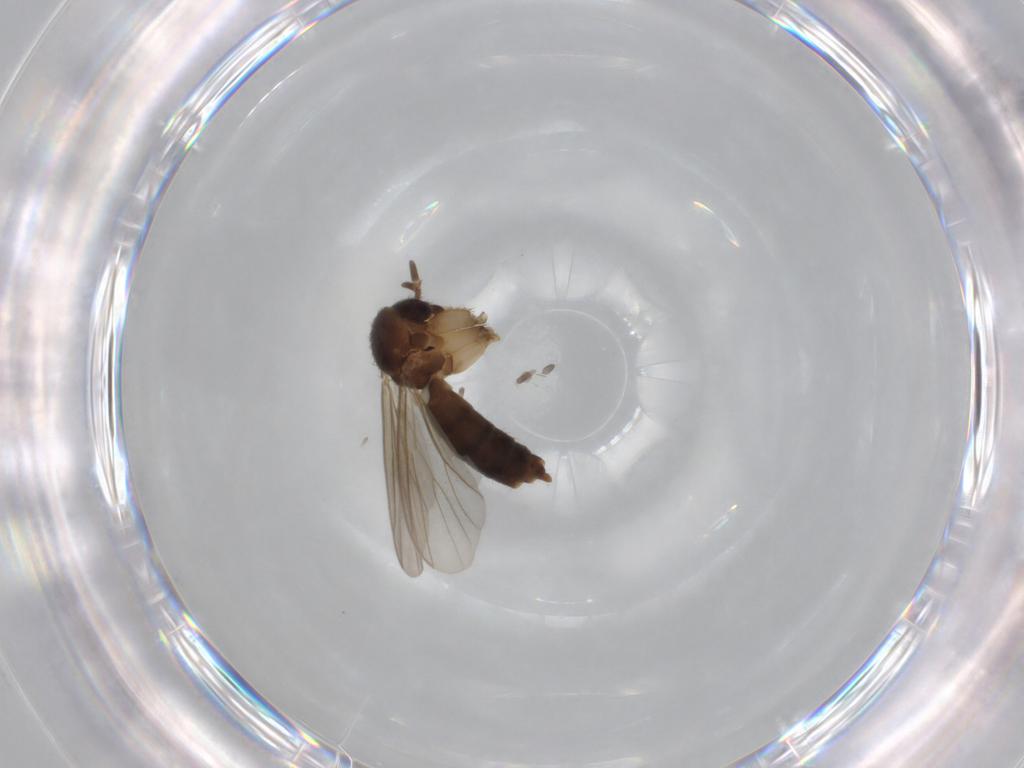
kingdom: Animalia
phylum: Arthropoda
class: Insecta
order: Diptera
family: Mycetophilidae
